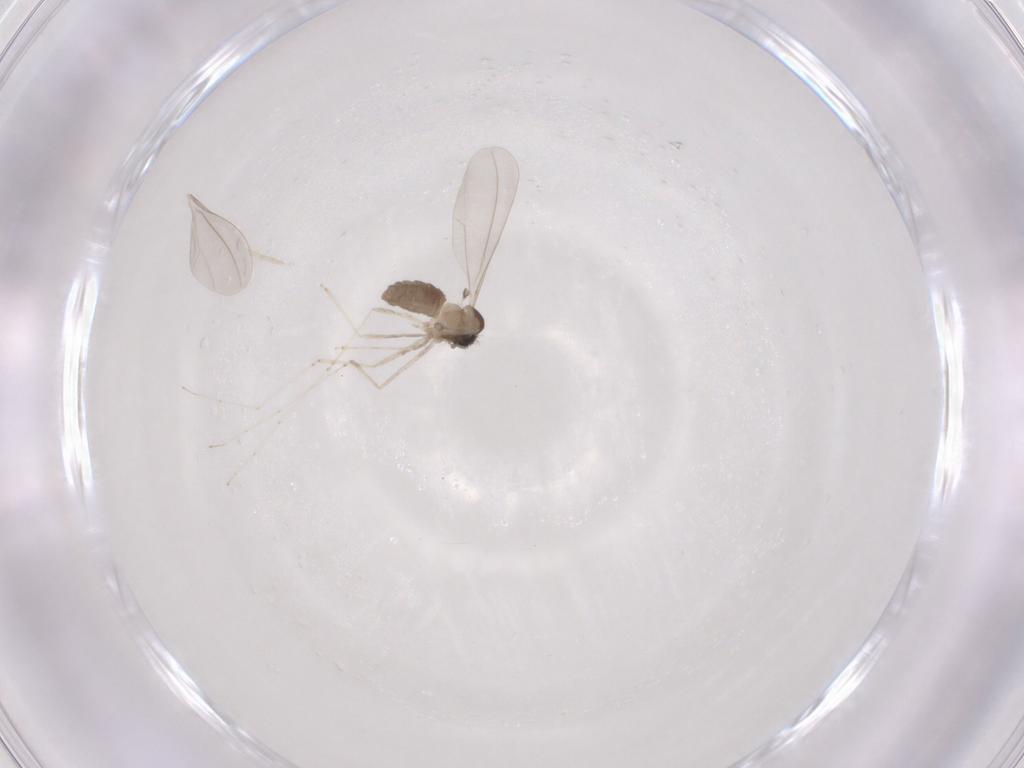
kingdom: Animalia
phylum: Arthropoda
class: Insecta
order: Diptera
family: Cecidomyiidae
